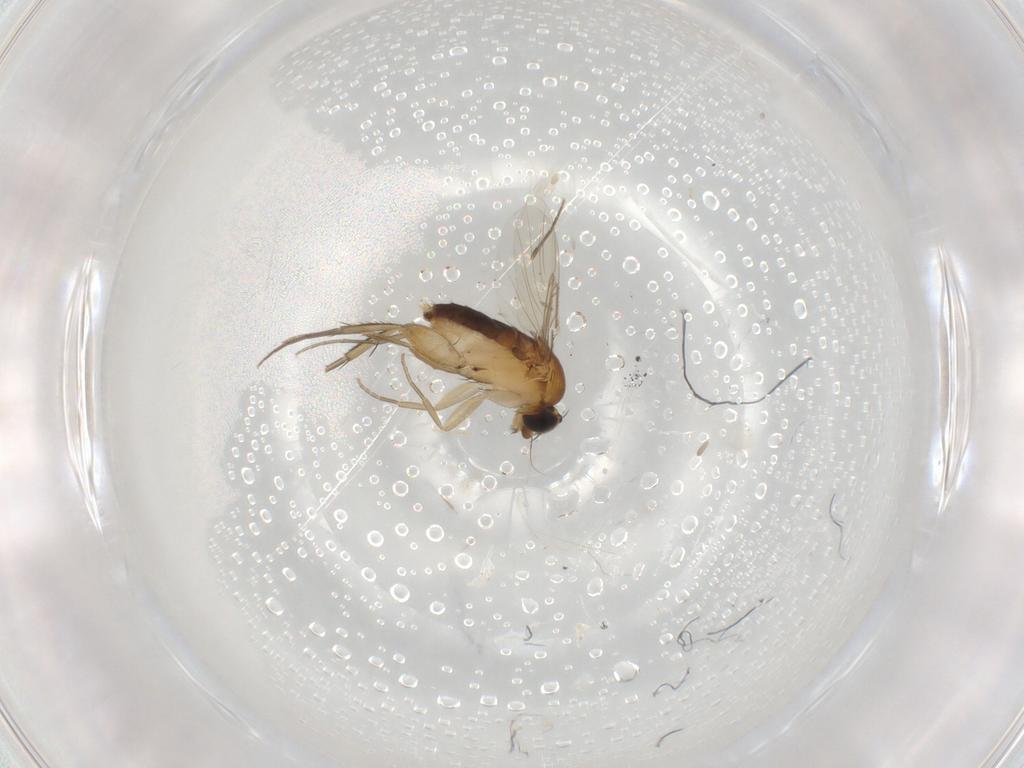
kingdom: Animalia
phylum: Arthropoda
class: Insecta
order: Diptera
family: Phoridae
